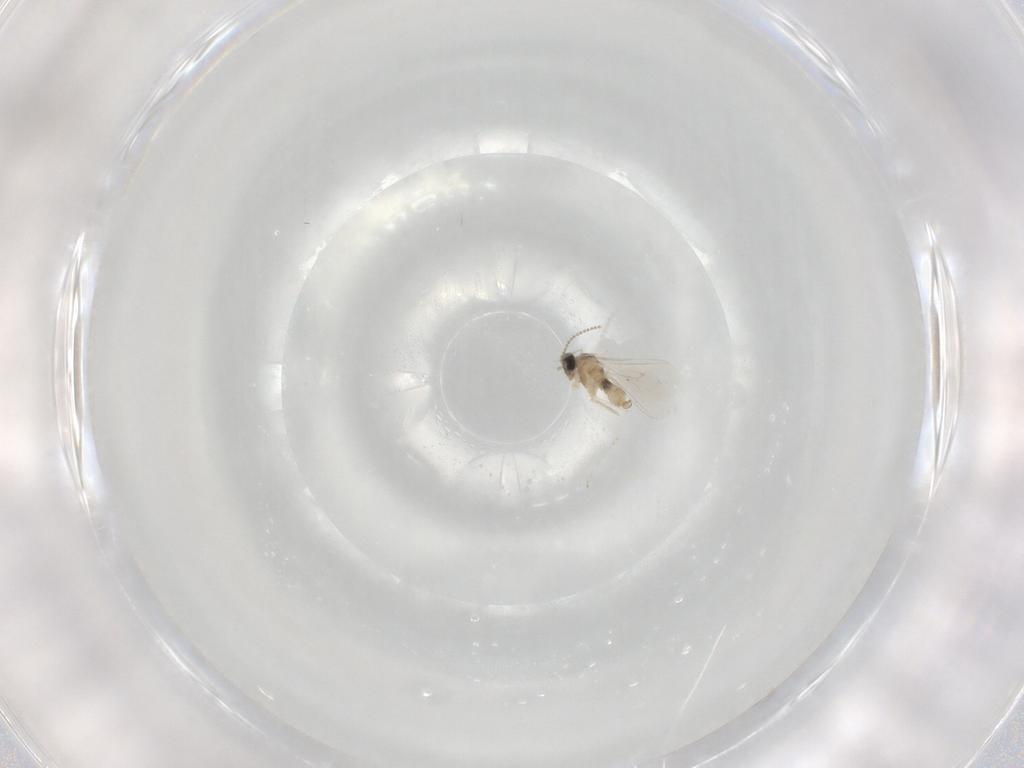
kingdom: Animalia
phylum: Arthropoda
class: Insecta
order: Diptera
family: Cecidomyiidae
